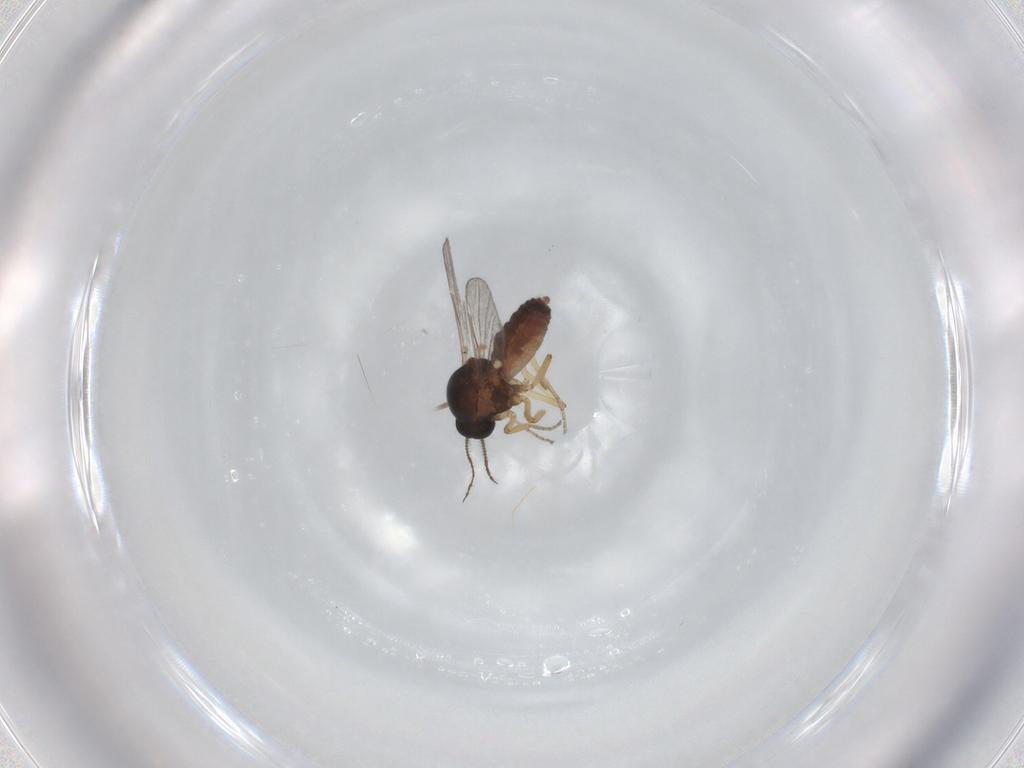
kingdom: Animalia
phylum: Arthropoda
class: Insecta
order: Diptera
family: Ceratopogonidae
